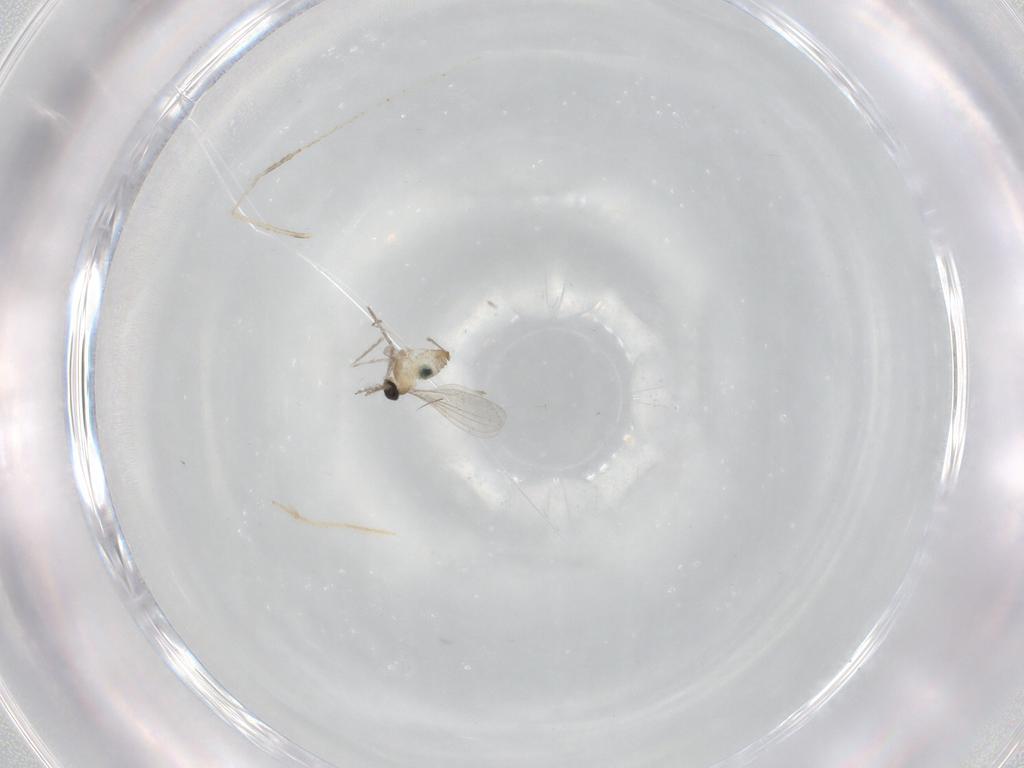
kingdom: Animalia
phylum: Arthropoda
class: Insecta
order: Diptera
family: Cecidomyiidae
